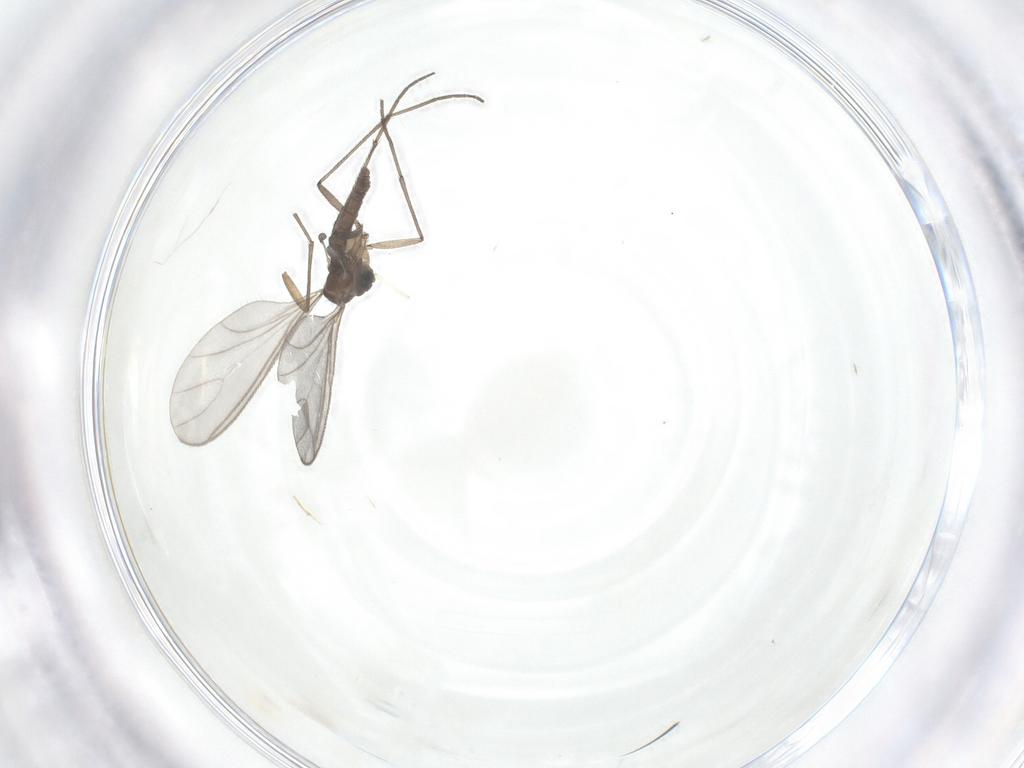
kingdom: Animalia
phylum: Arthropoda
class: Insecta
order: Diptera
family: Sciaridae
